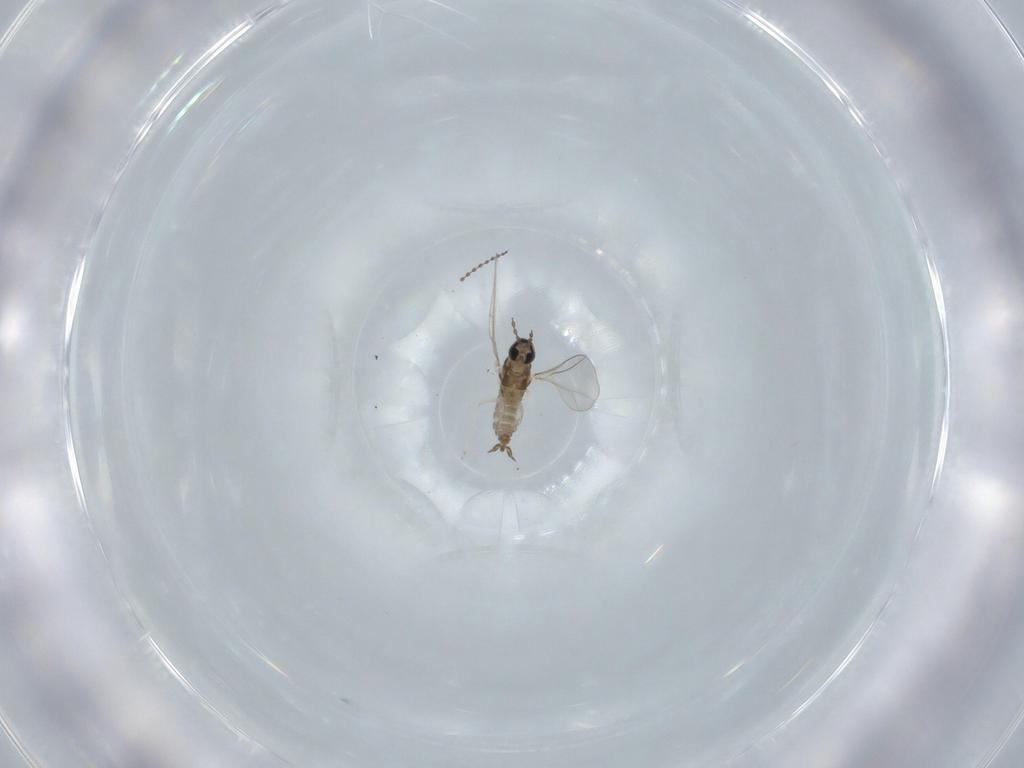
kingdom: Animalia
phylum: Arthropoda
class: Insecta
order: Diptera
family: Cecidomyiidae
